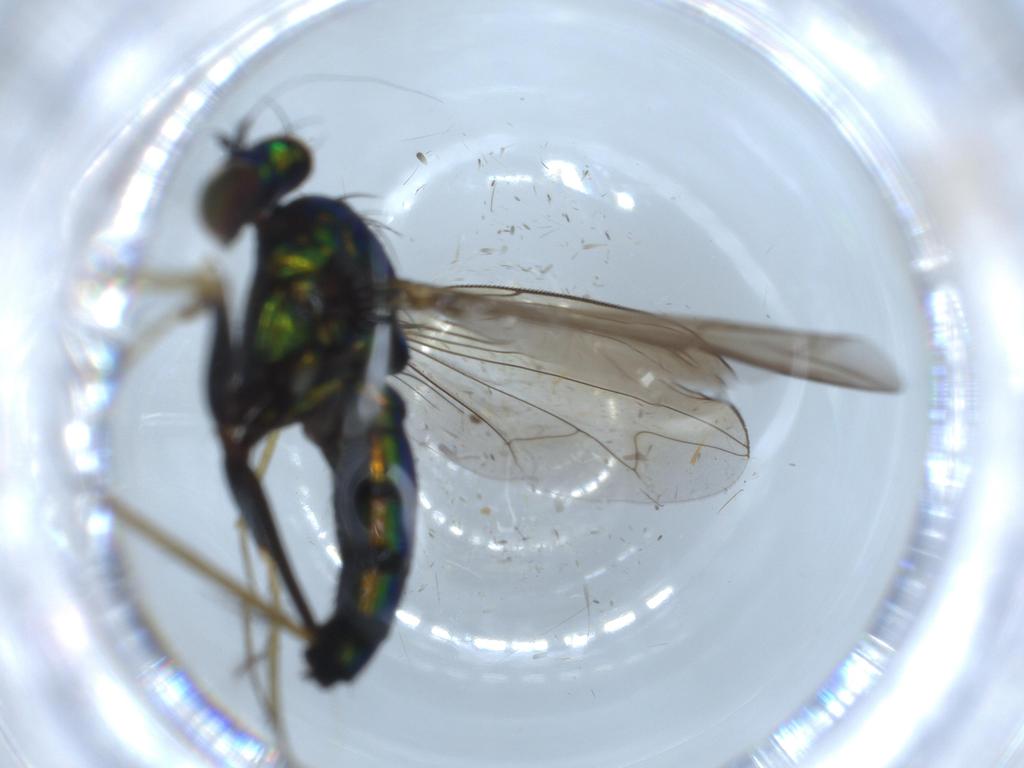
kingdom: Animalia
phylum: Arthropoda
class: Insecta
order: Diptera
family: Dolichopodidae
